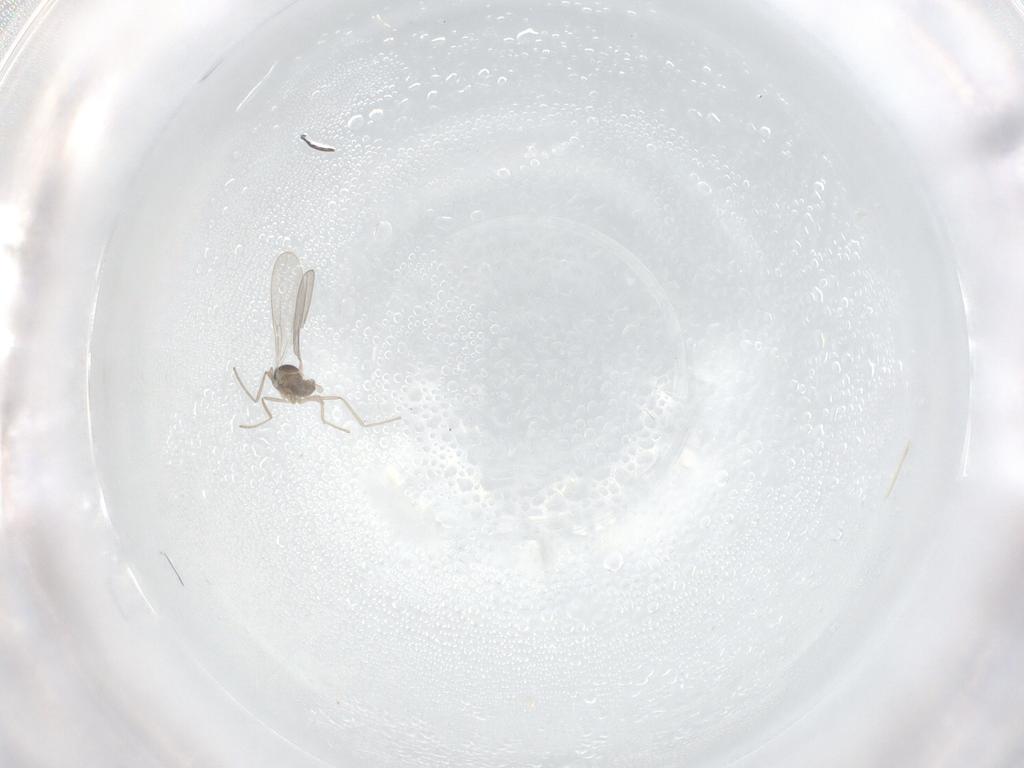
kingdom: Animalia
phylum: Arthropoda
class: Insecta
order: Diptera
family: Cecidomyiidae
